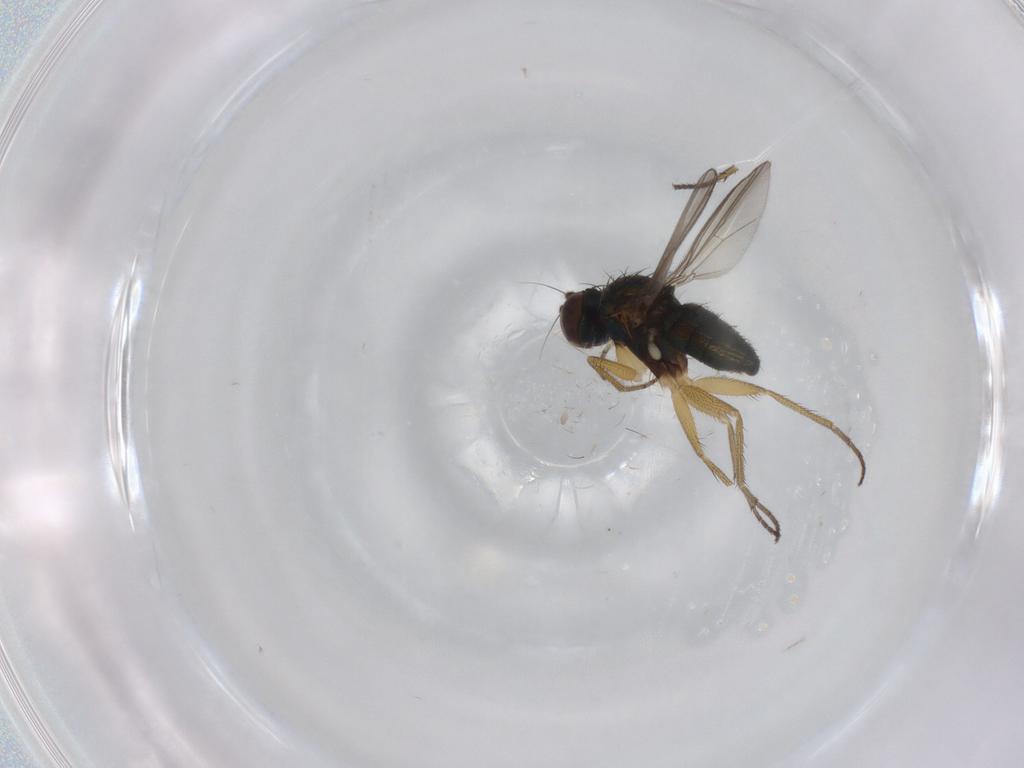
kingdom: Animalia
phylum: Arthropoda
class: Insecta
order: Diptera
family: Dolichopodidae
